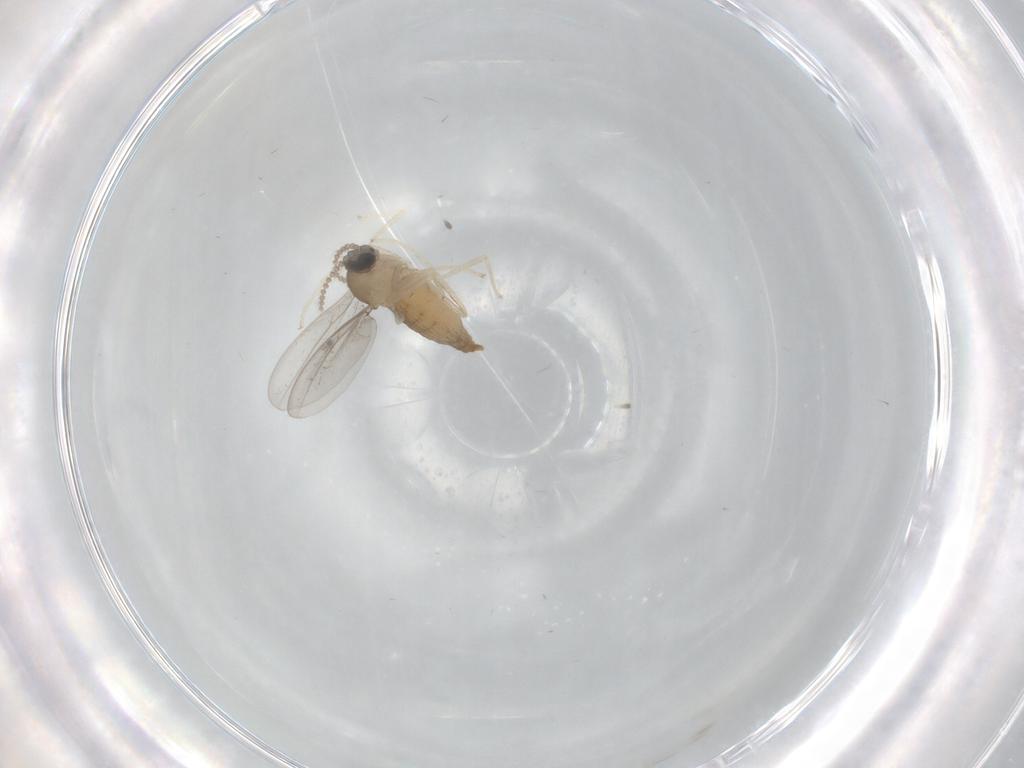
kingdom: Animalia
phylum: Arthropoda
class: Insecta
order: Diptera
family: Cecidomyiidae
